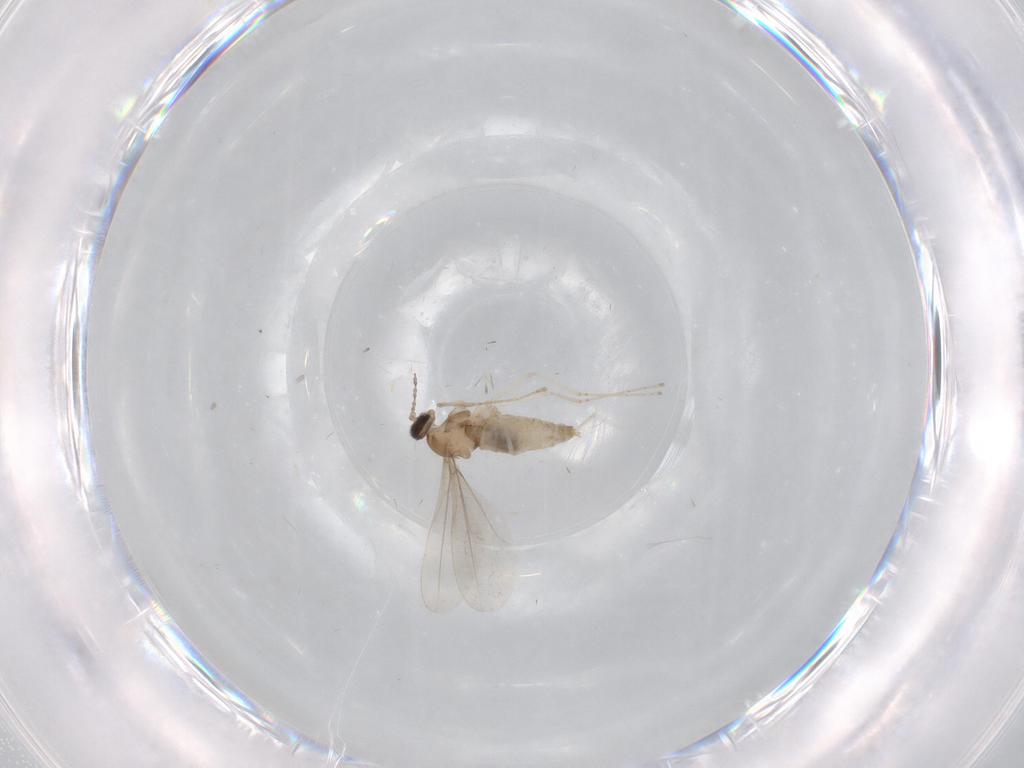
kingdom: Animalia
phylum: Arthropoda
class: Insecta
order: Diptera
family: Cecidomyiidae
